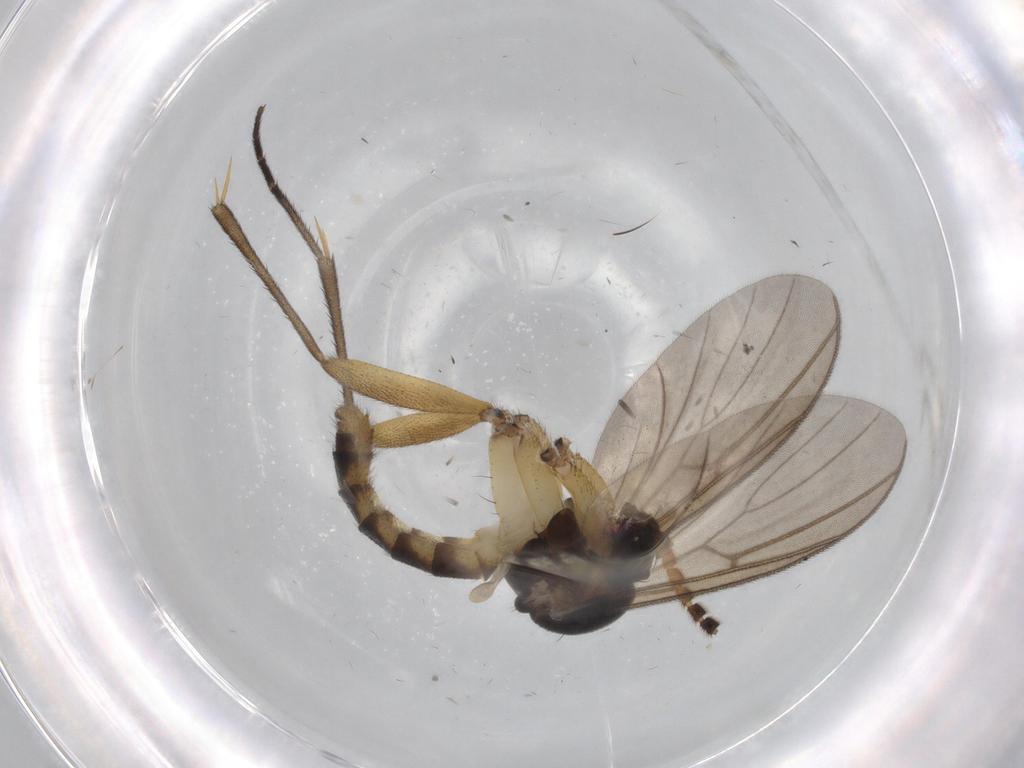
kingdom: Animalia
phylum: Arthropoda
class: Insecta
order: Diptera
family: Chironomidae
